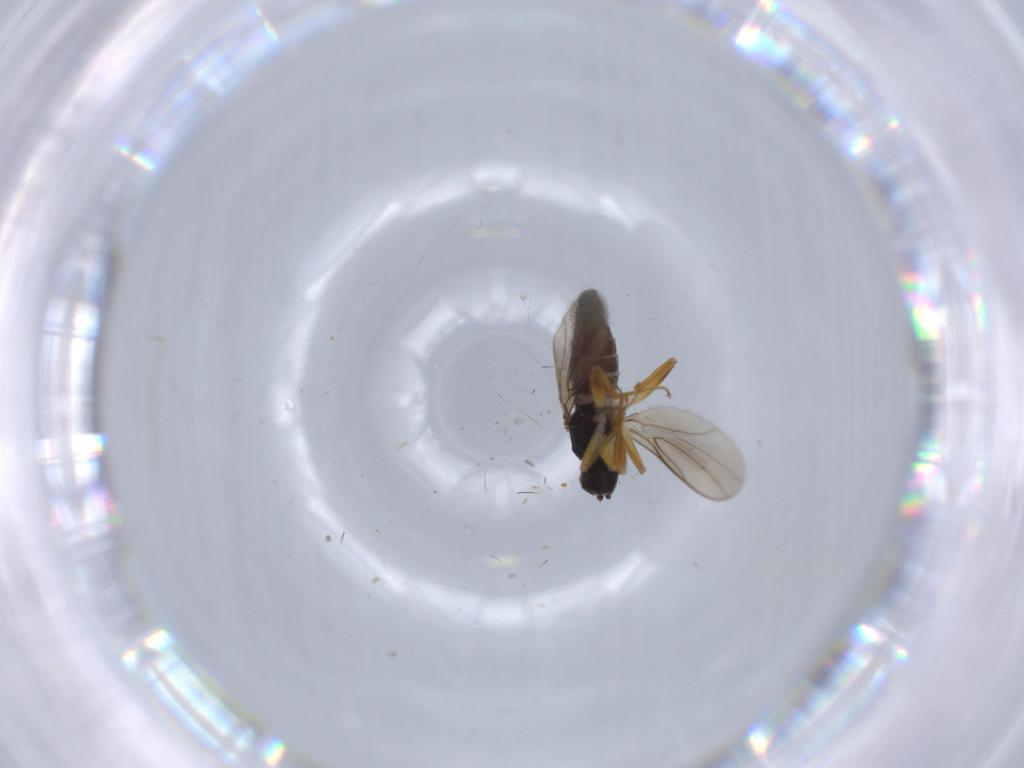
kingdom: Animalia
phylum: Arthropoda
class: Insecta
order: Diptera
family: Hybotidae
